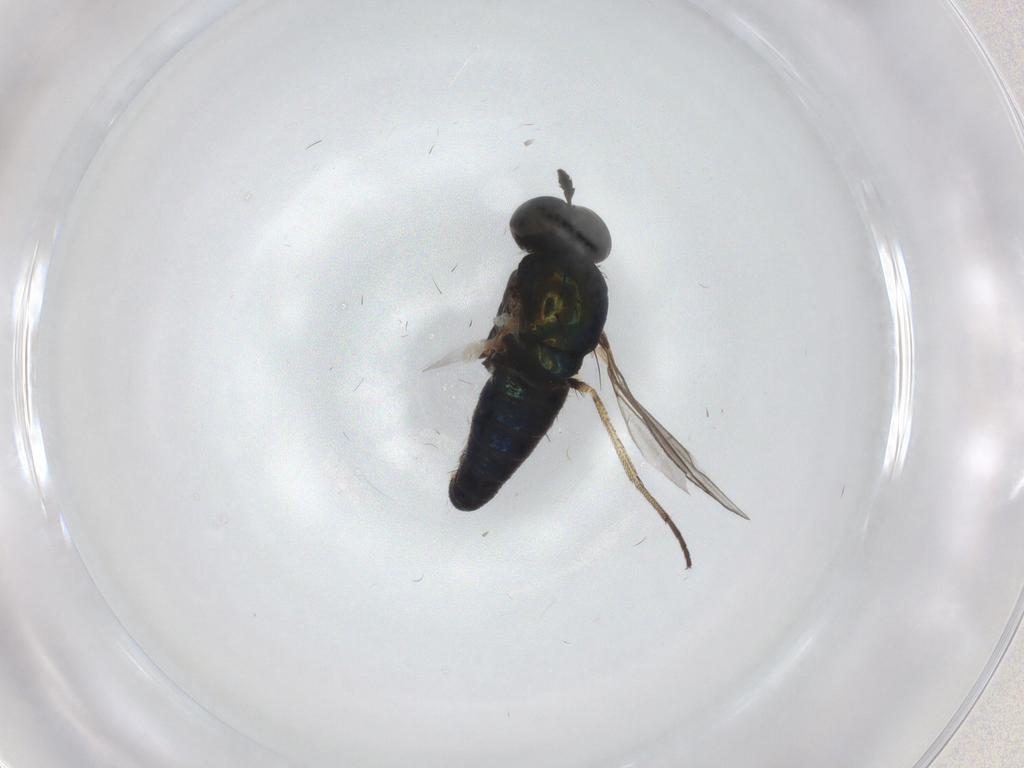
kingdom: Animalia
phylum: Arthropoda
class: Insecta
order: Diptera
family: Dolichopodidae
